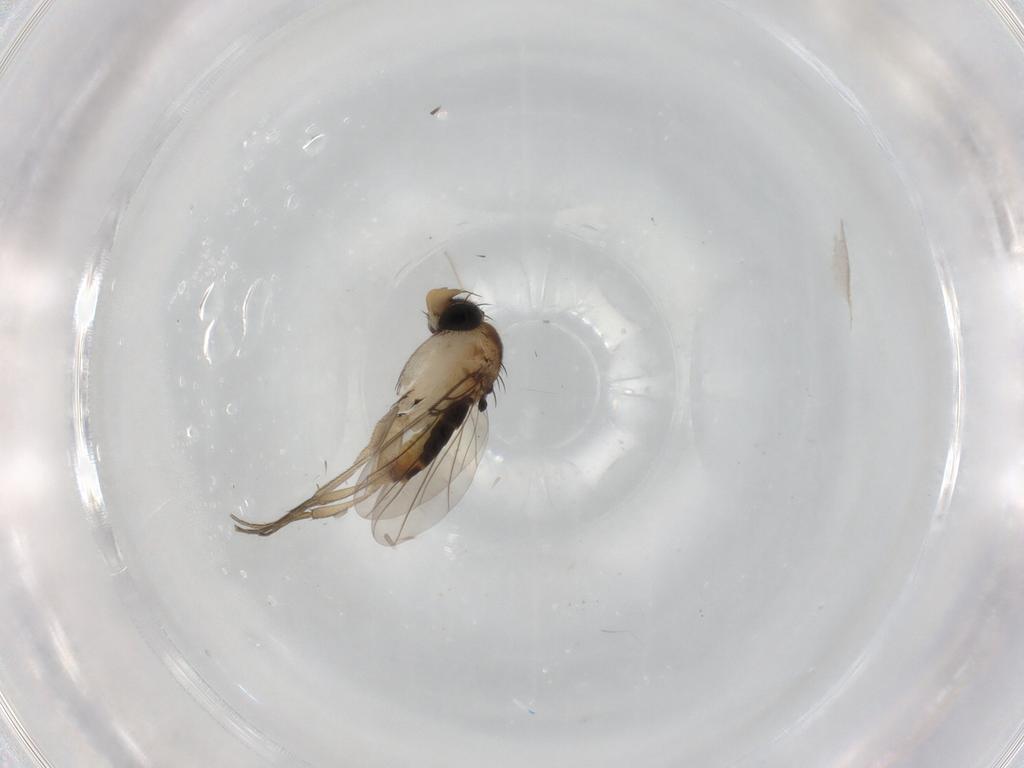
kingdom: Animalia
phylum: Arthropoda
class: Insecta
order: Diptera
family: Phoridae
